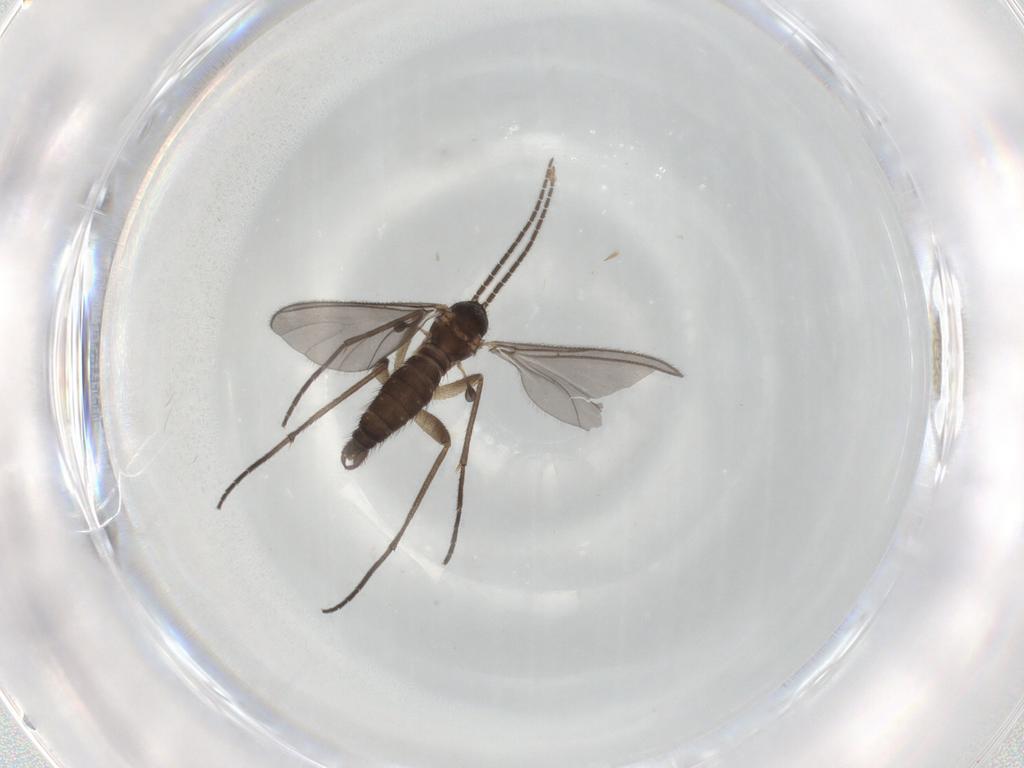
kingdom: Animalia
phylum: Arthropoda
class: Insecta
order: Diptera
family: Sciaridae
